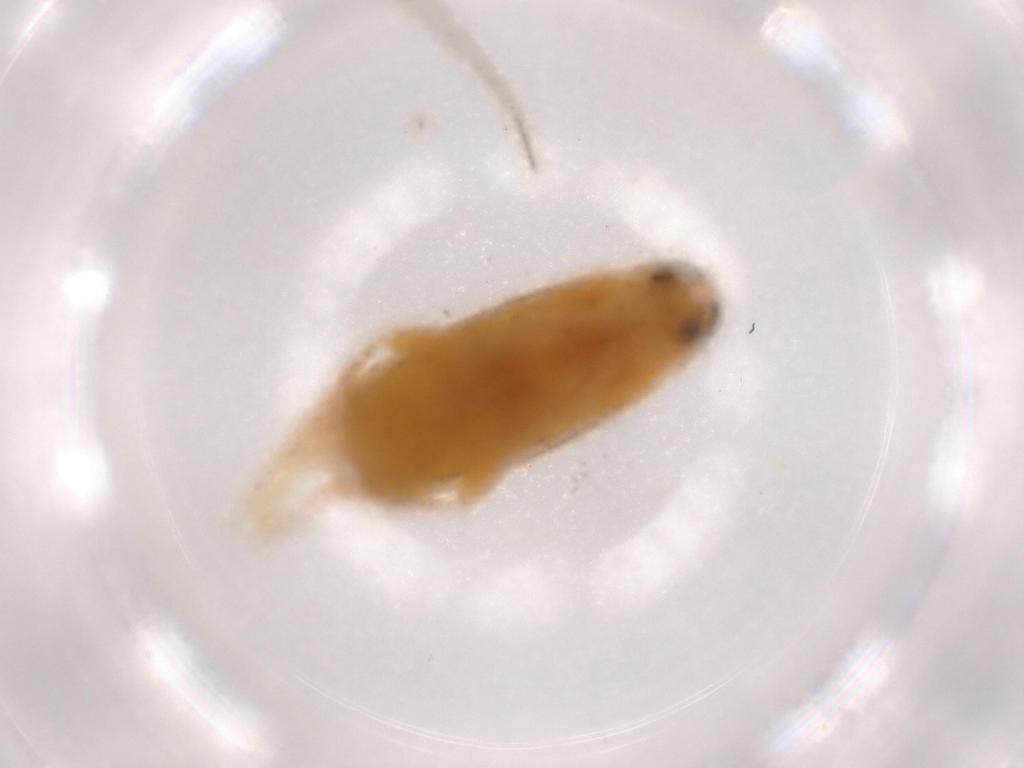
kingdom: Animalia
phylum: Arthropoda
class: Insecta
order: Coleoptera
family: Scraptiidae
